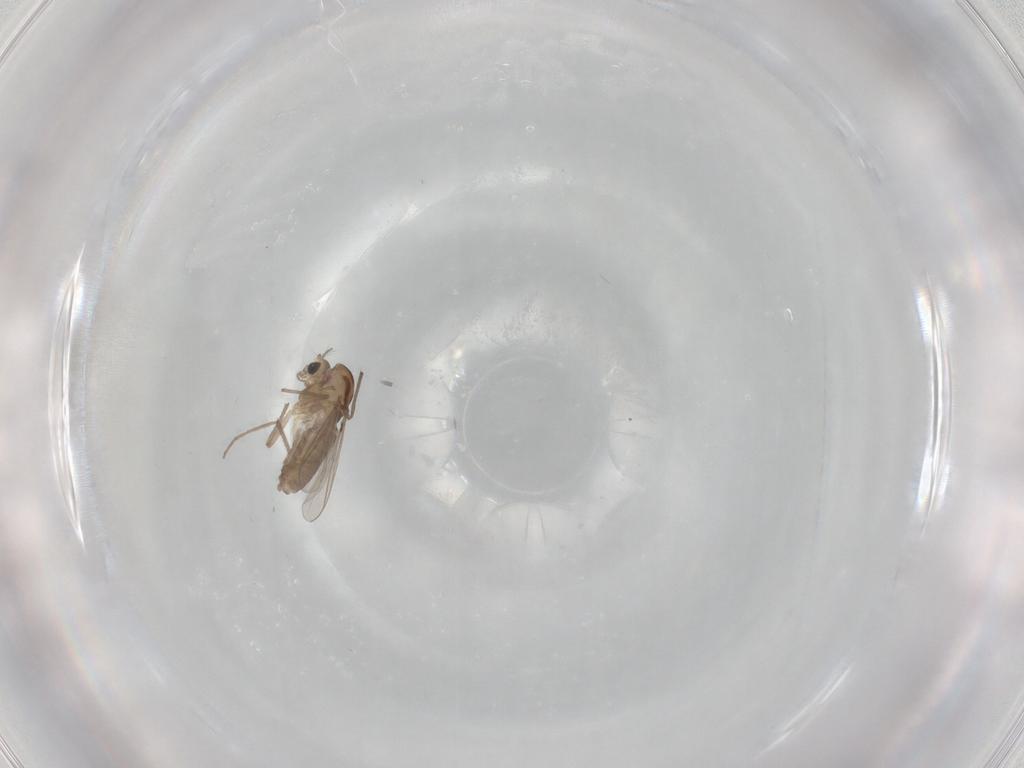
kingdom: Animalia
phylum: Arthropoda
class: Insecta
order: Diptera
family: Chironomidae
